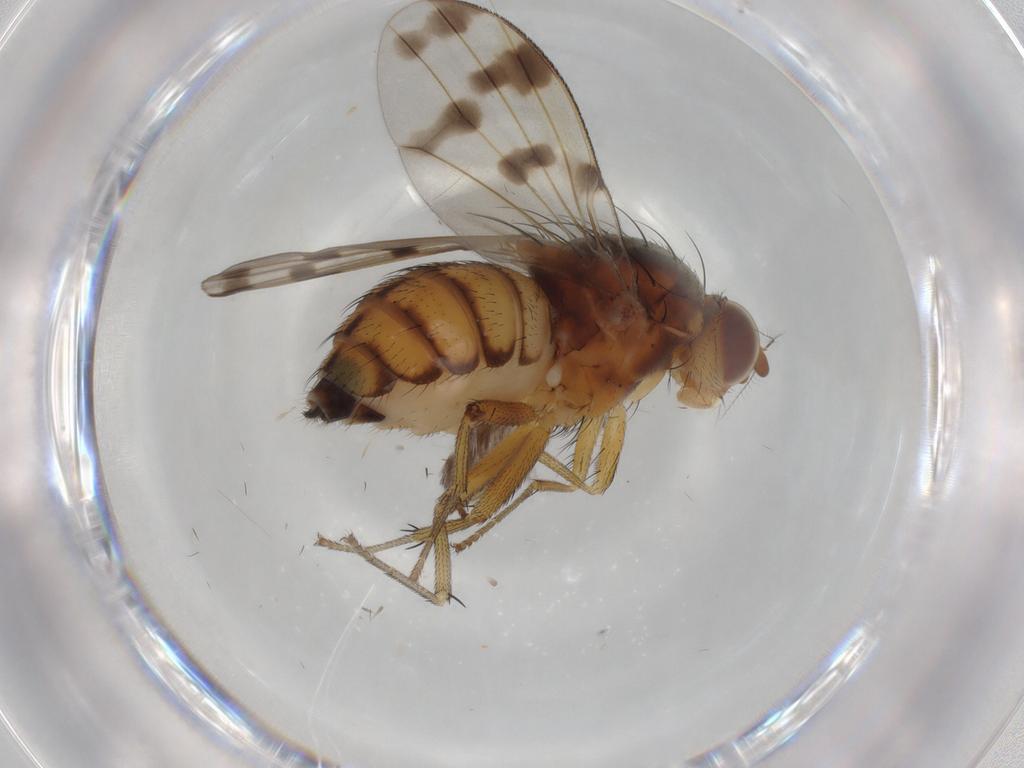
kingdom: Animalia
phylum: Arthropoda
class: Insecta
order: Diptera
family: Lauxaniidae
